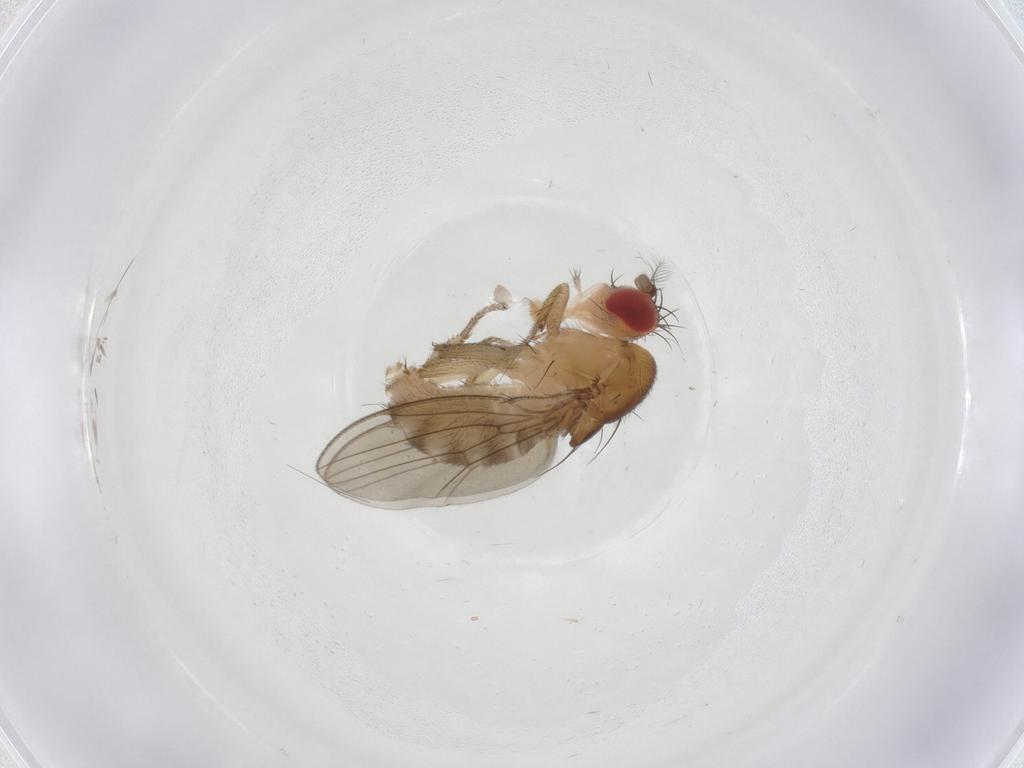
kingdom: Animalia
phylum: Arthropoda
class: Insecta
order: Diptera
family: Drosophilidae
